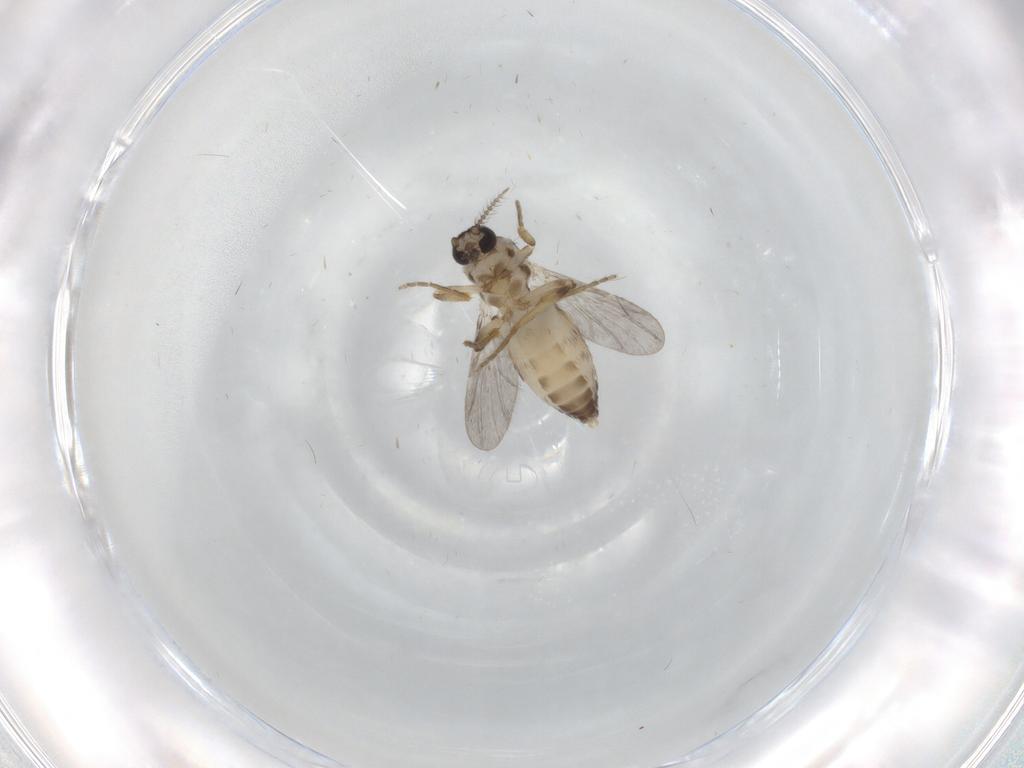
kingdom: Animalia
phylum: Arthropoda
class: Insecta
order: Diptera
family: Ceratopogonidae
